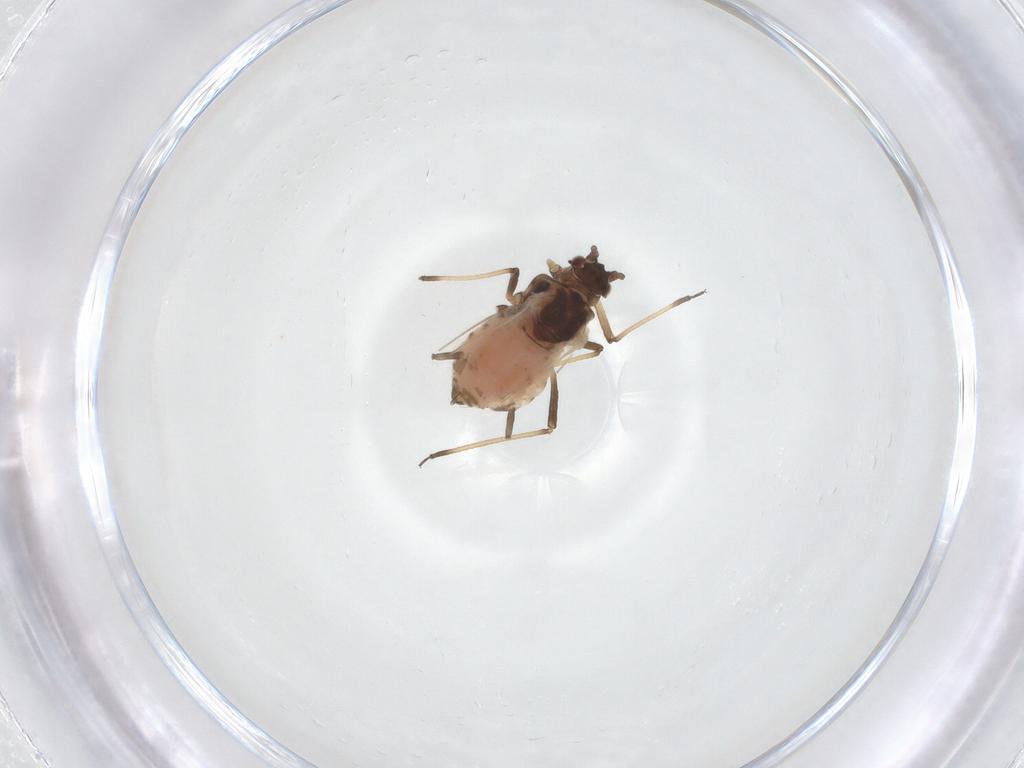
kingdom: Animalia
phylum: Arthropoda
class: Insecta
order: Hemiptera
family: Aphididae
